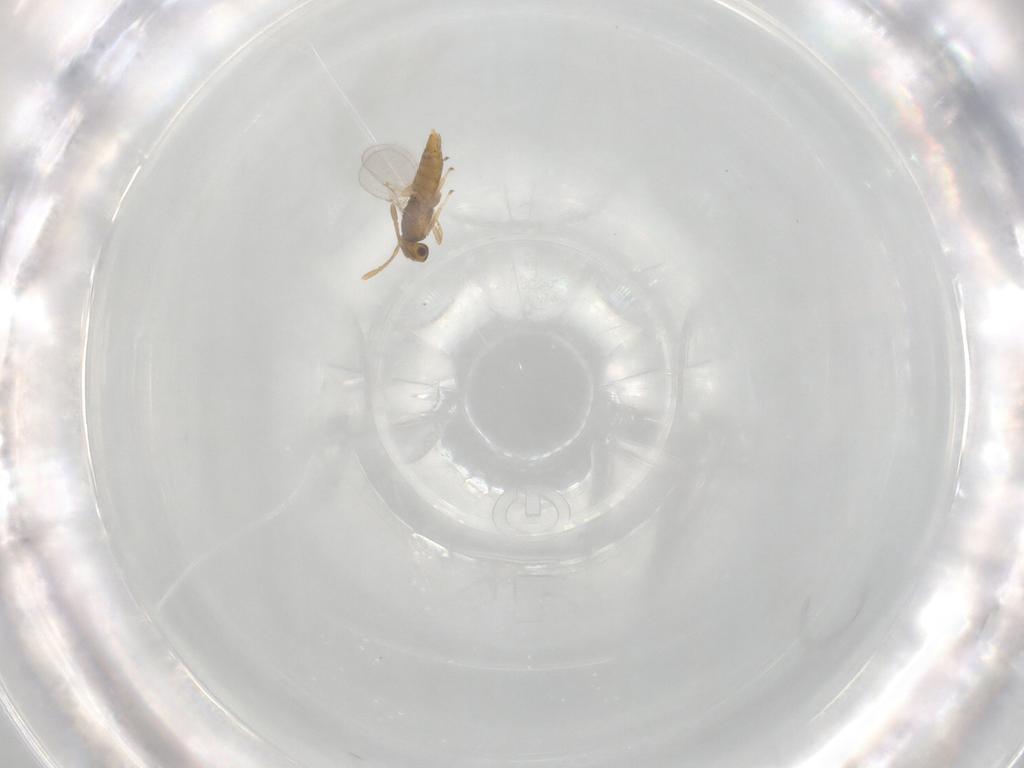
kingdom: Animalia
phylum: Arthropoda
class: Insecta
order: Hymenoptera
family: Encyrtidae
